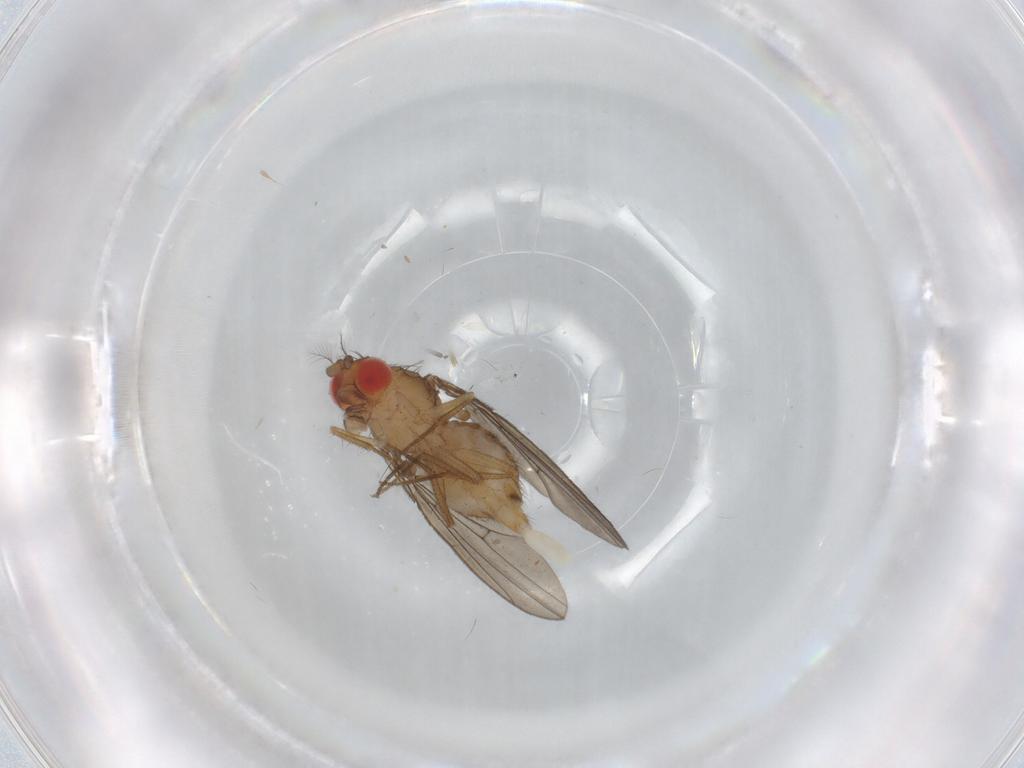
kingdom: Animalia
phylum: Arthropoda
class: Insecta
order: Diptera
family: Drosophilidae
